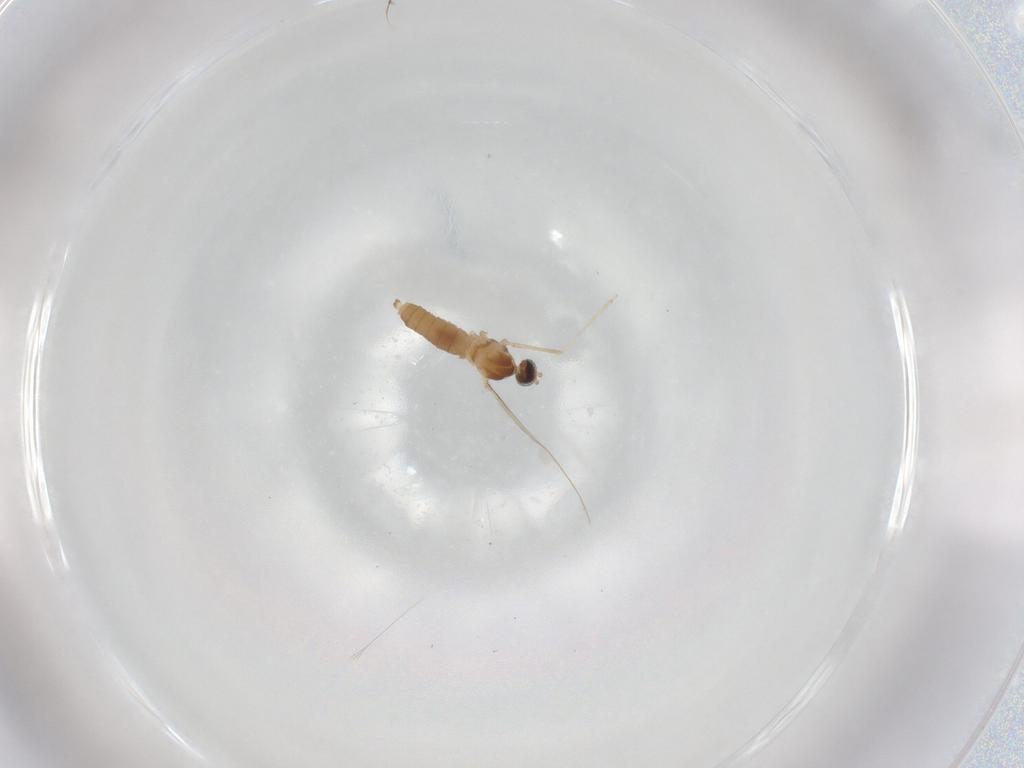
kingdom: Animalia
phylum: Arthropoda
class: Insecta
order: Diptera
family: Cecidomyiidae
